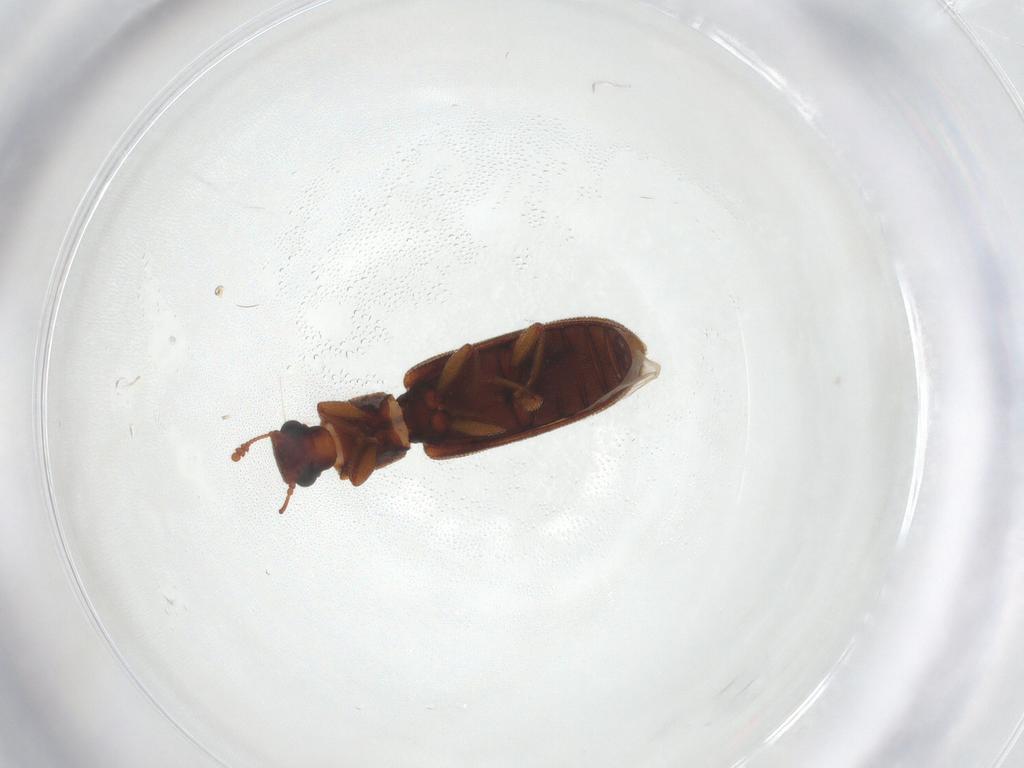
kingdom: Animalia
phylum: Arthropoda
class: Insecta
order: Coleoptera
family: Zopheridae
